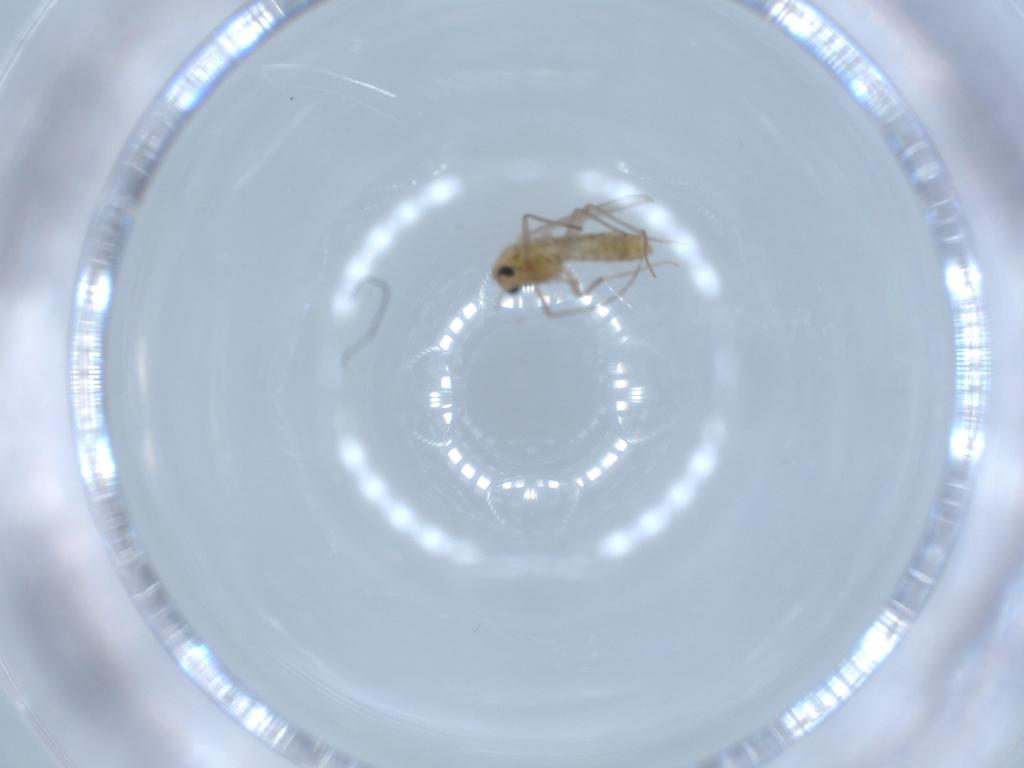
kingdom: Animalia
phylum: Arthropoda
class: Insecta
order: Diptera
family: Chironomidae
